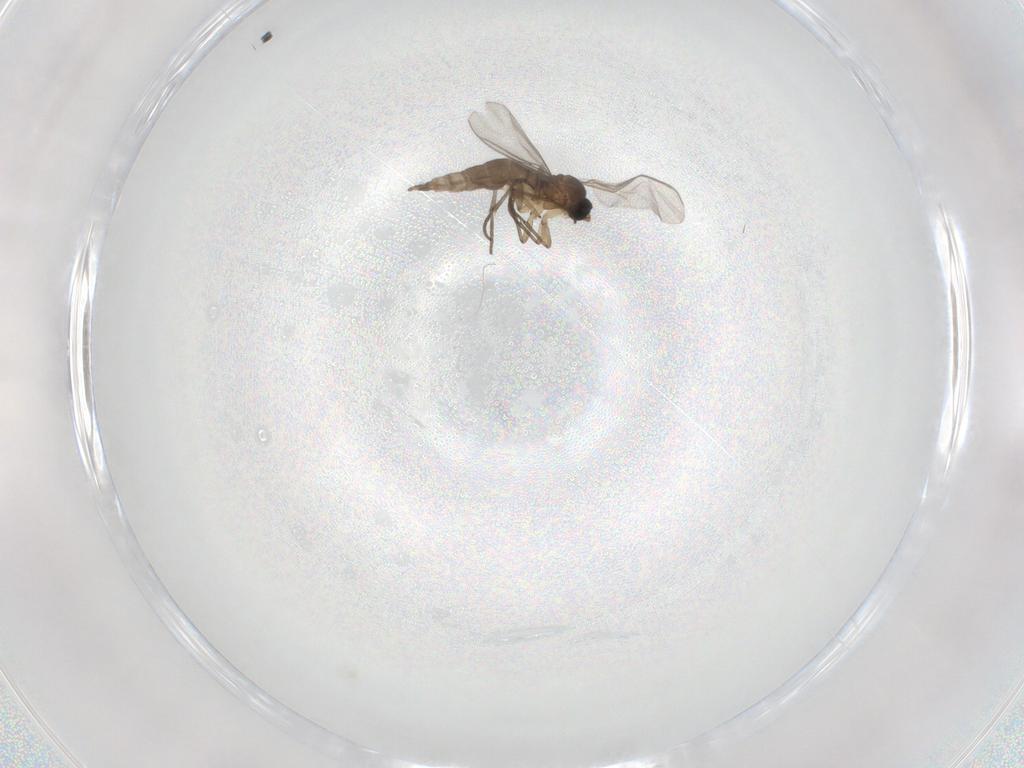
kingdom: Animalia
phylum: Arthropoda
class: Insecta
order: Diptera
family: Sciaridae
